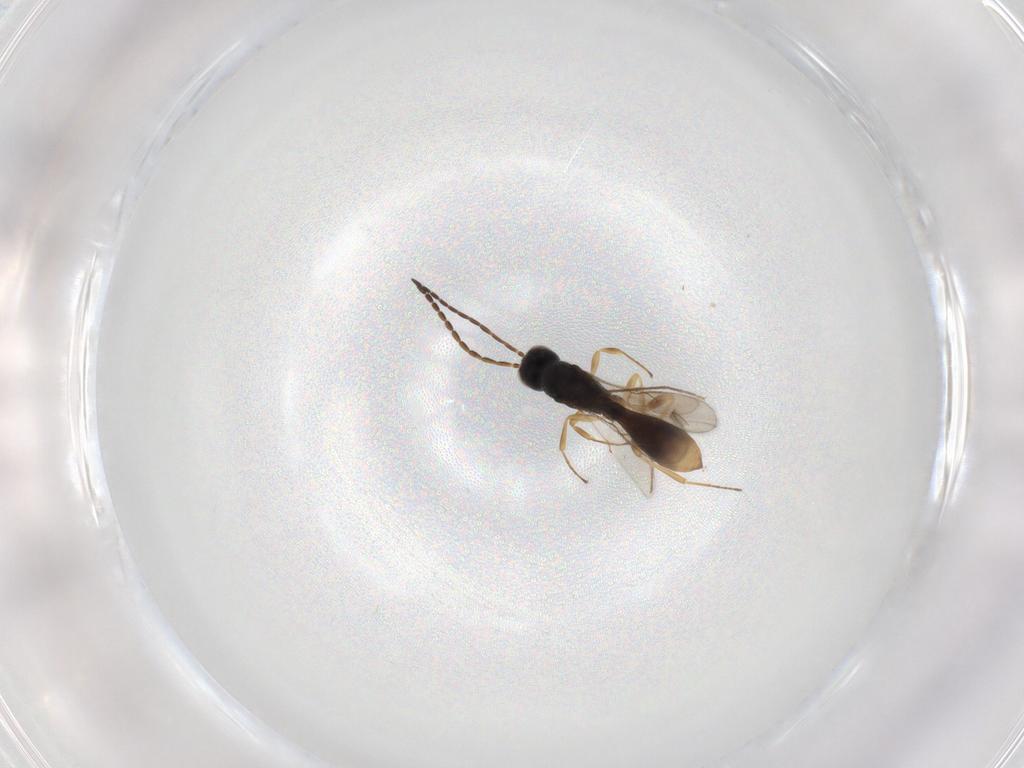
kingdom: Animalia
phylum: Arthropoda
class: Insecta
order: Hymenoptera
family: Scelionidae
